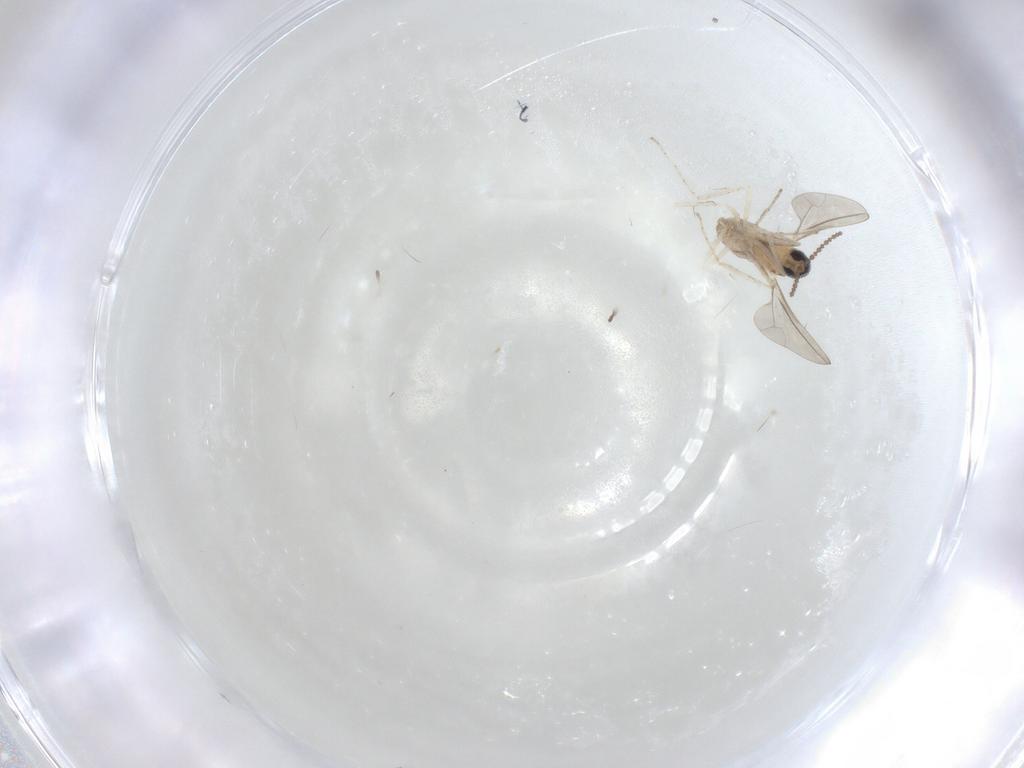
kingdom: Animalia
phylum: Arthropoda
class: Insecta
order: Diptera
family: Cecidomyiidae
